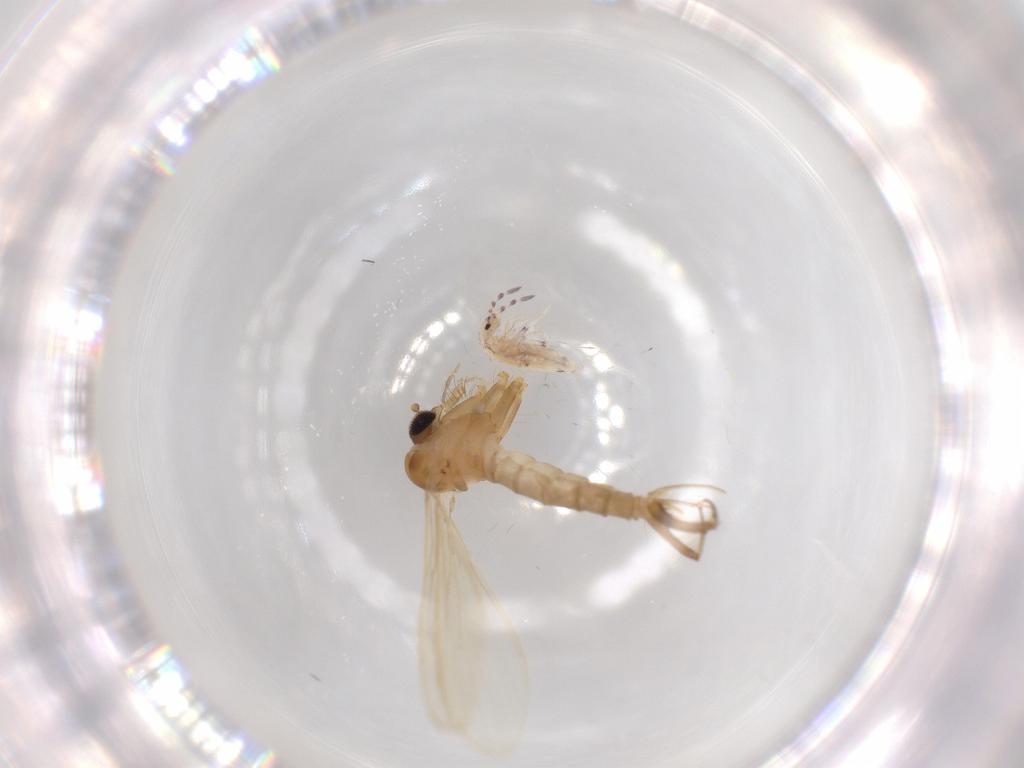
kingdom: Animalia
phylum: Arthropoda
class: Insecta
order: Diptera
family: Psychodidae
